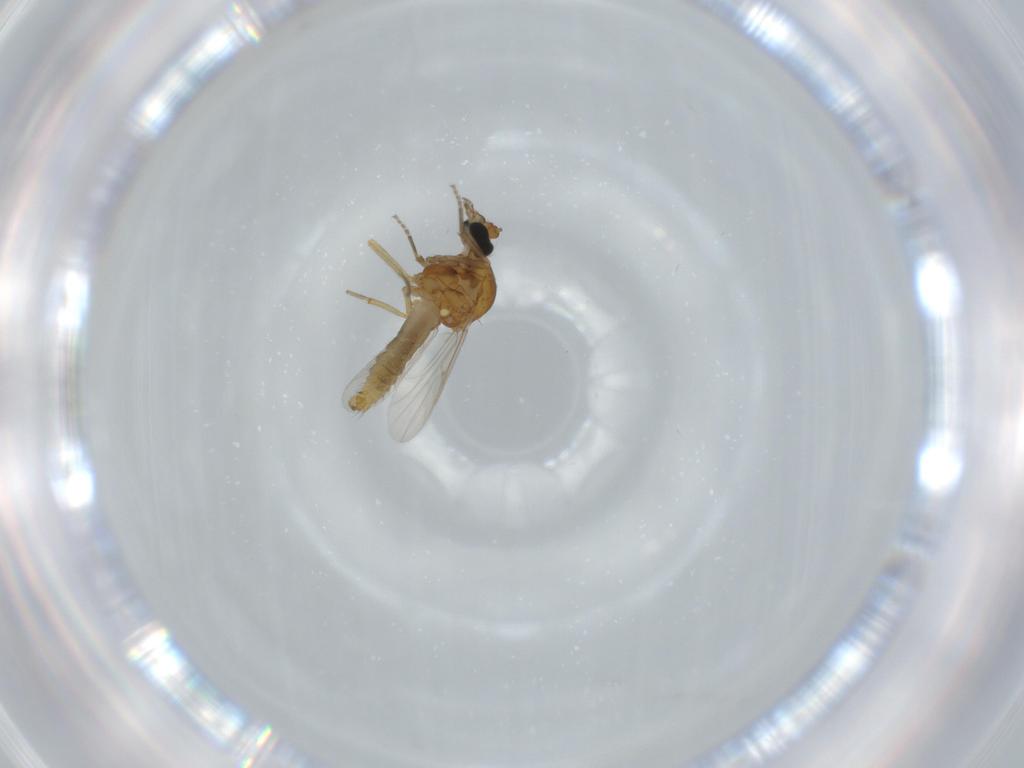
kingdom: Animalia
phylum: Arthropoda
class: Insecta
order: Diptera
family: Ceratopogonidae
